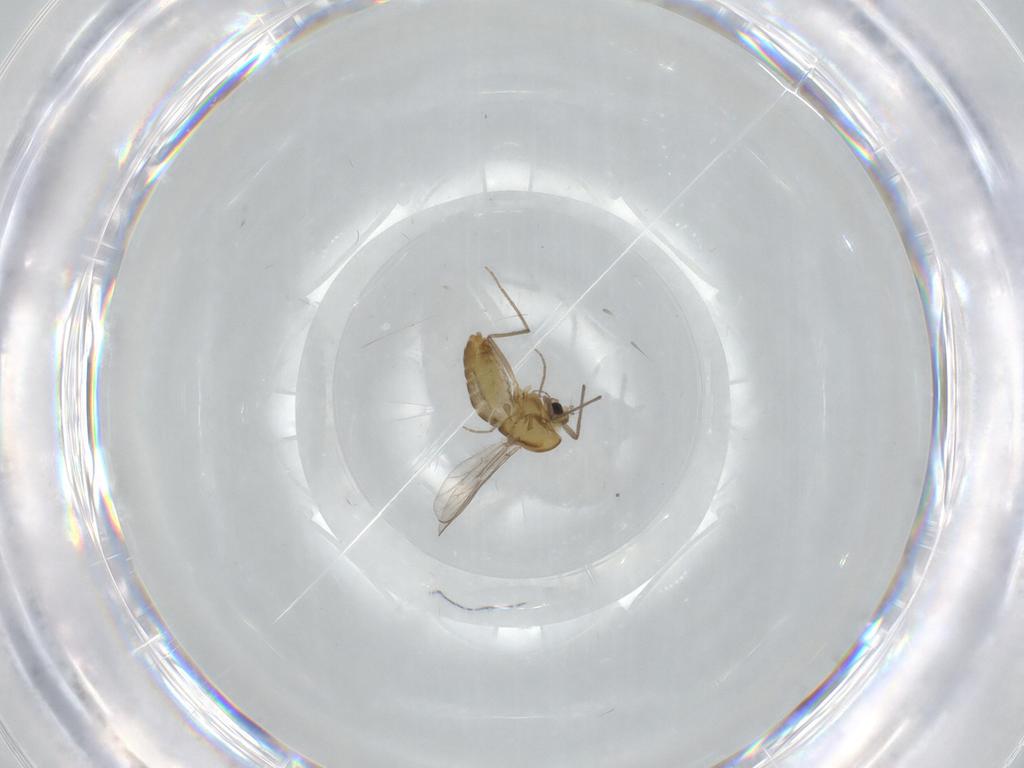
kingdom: Animalia
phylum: Arthropoda
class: Insecta
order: Diptera
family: Chironomidae
